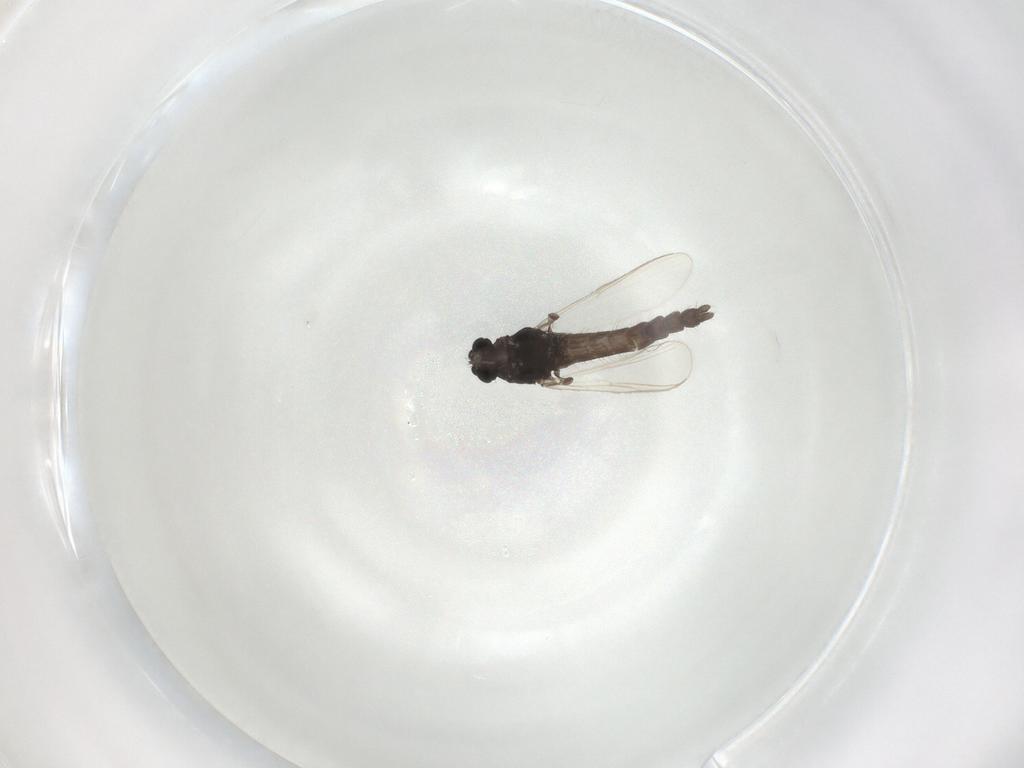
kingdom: Animalia
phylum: Arthropoda
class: Insecta
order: Diptera
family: Chironomidae
